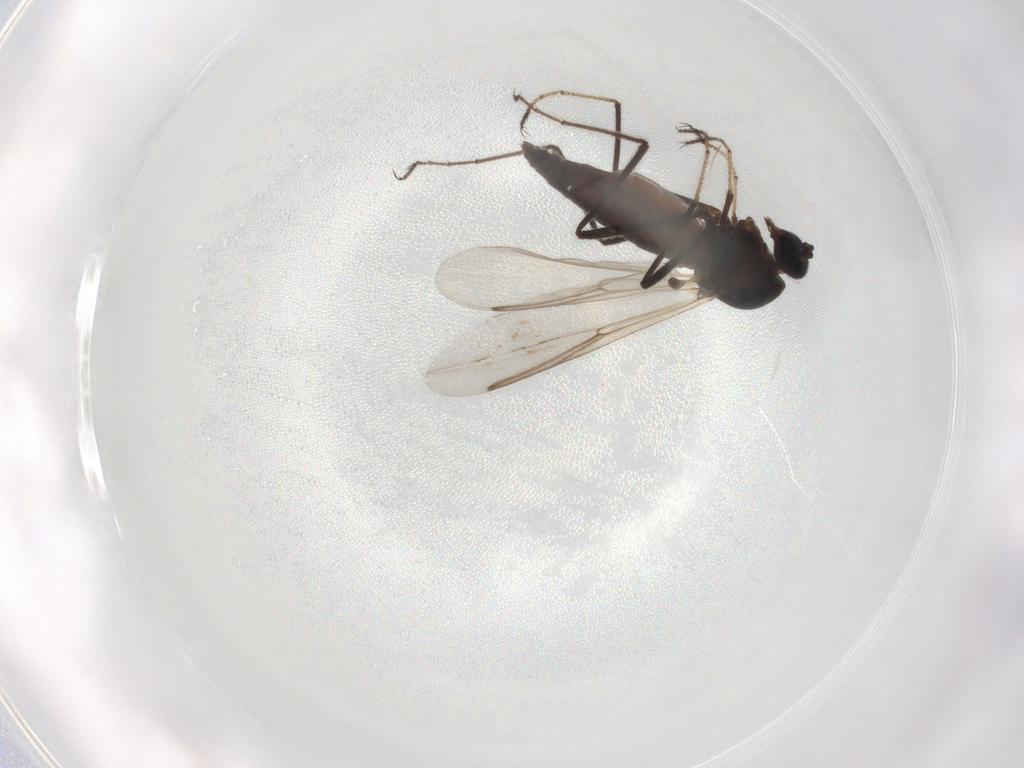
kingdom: Animalia
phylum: Arthropoda
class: Insecta
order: Diptera
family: Ceratopogonidae
